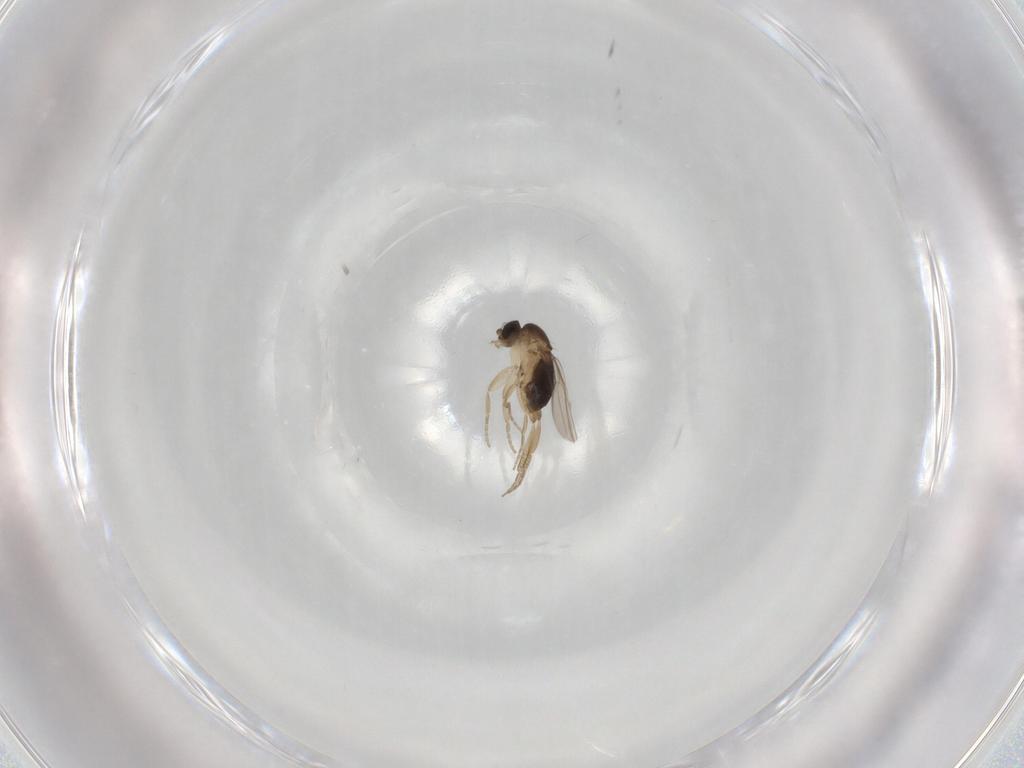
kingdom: Animalia
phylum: Arthropoda
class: Insecta
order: Diptera
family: Phoridae
